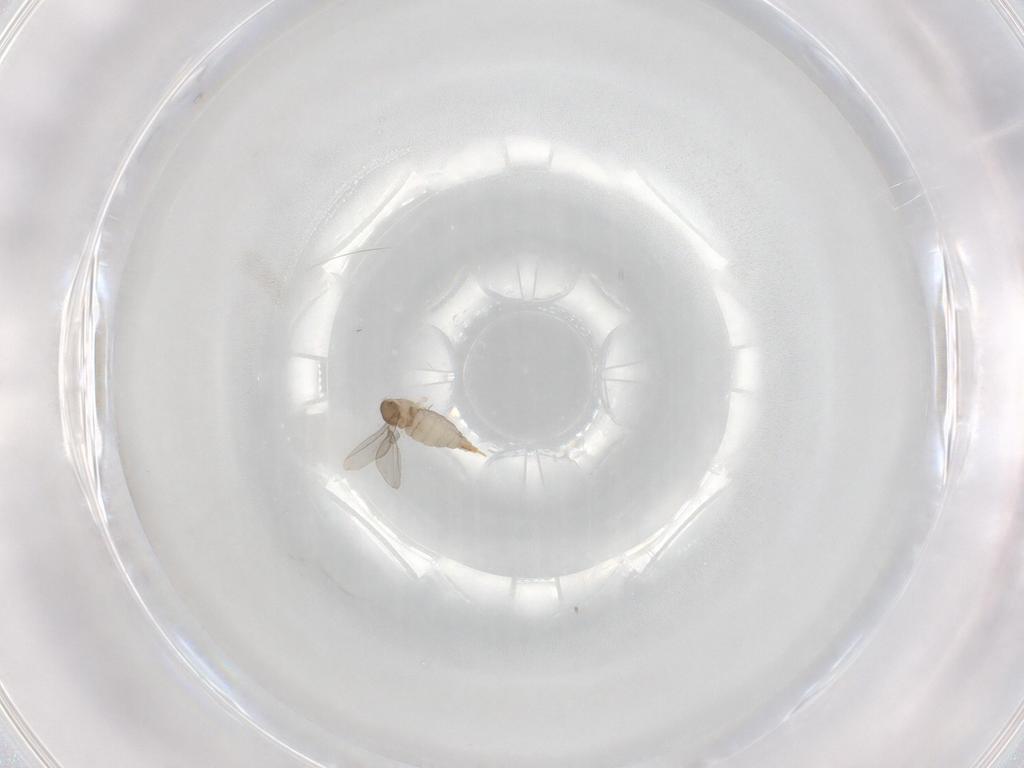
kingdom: Animalia
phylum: Arthropoda
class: Insecta
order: Diptera
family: Cecidomyiidae
